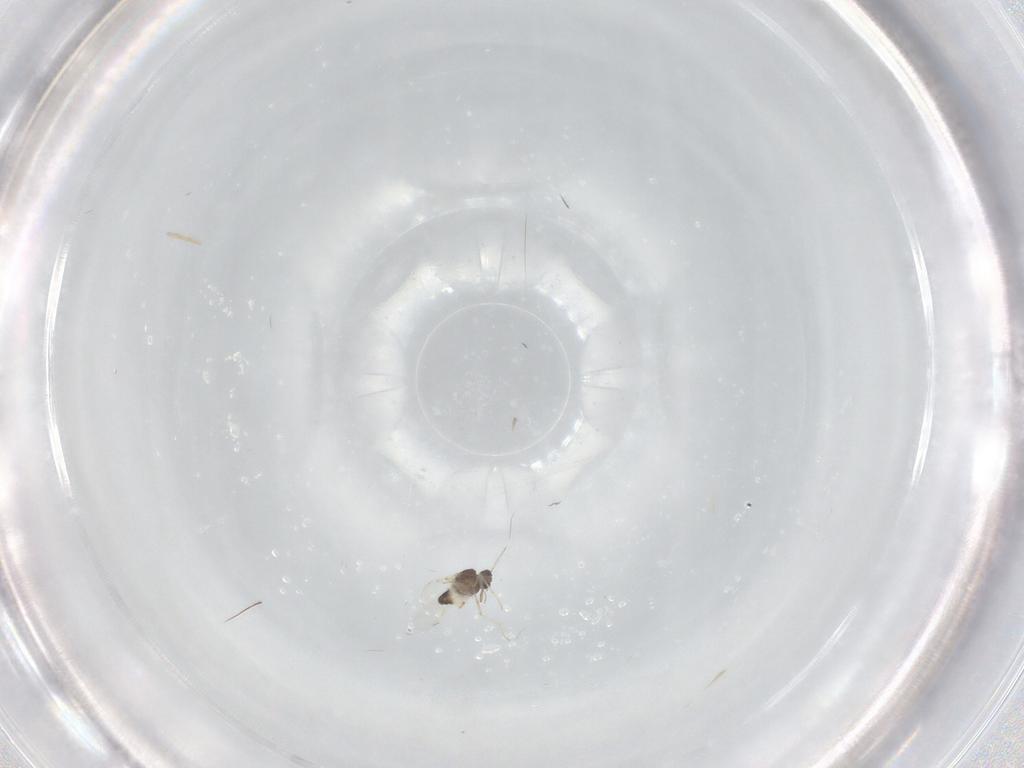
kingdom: Animalia
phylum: Arthropoda
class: Insecta
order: Diptera
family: Ceratopogonidae
